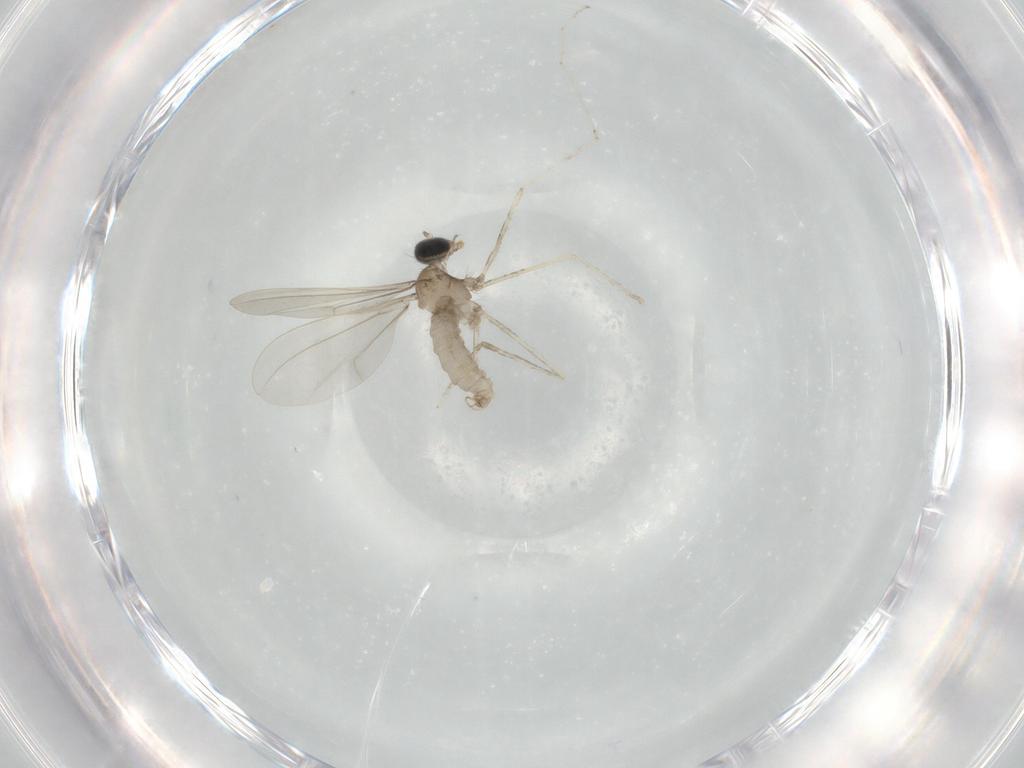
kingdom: Animalia
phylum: Arthropoda
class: Insecta
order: Diptera
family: Cecidomyiidae
